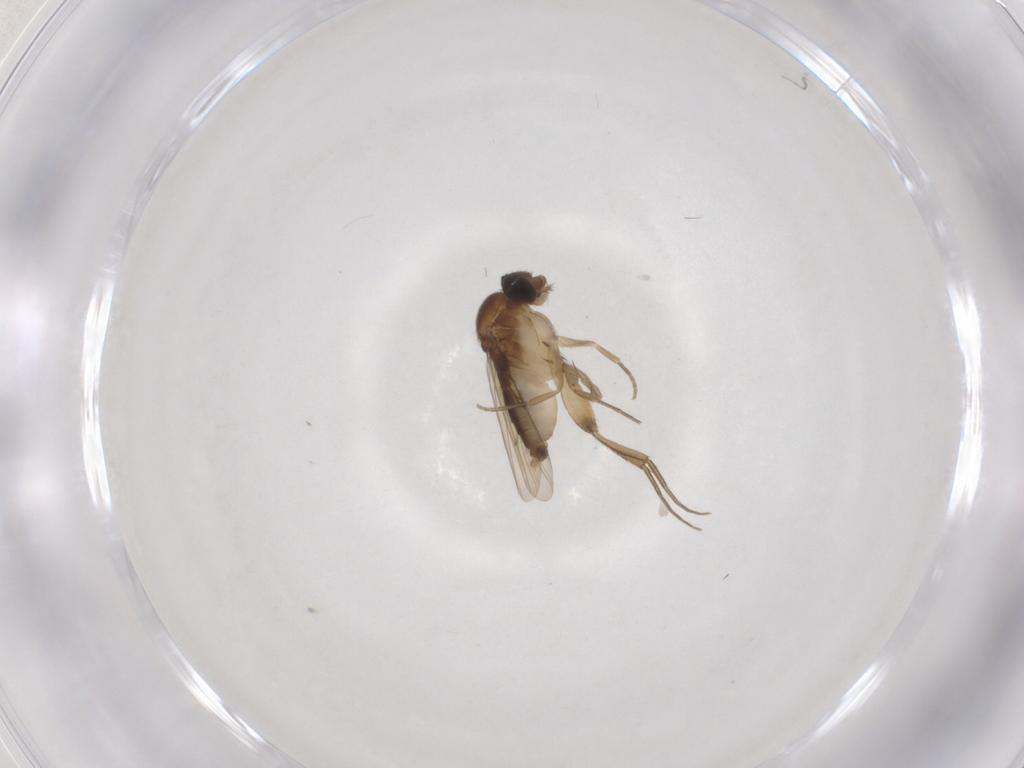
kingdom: Animalia
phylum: Arthropoda
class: Insecta
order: Diptera
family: Phoridae
